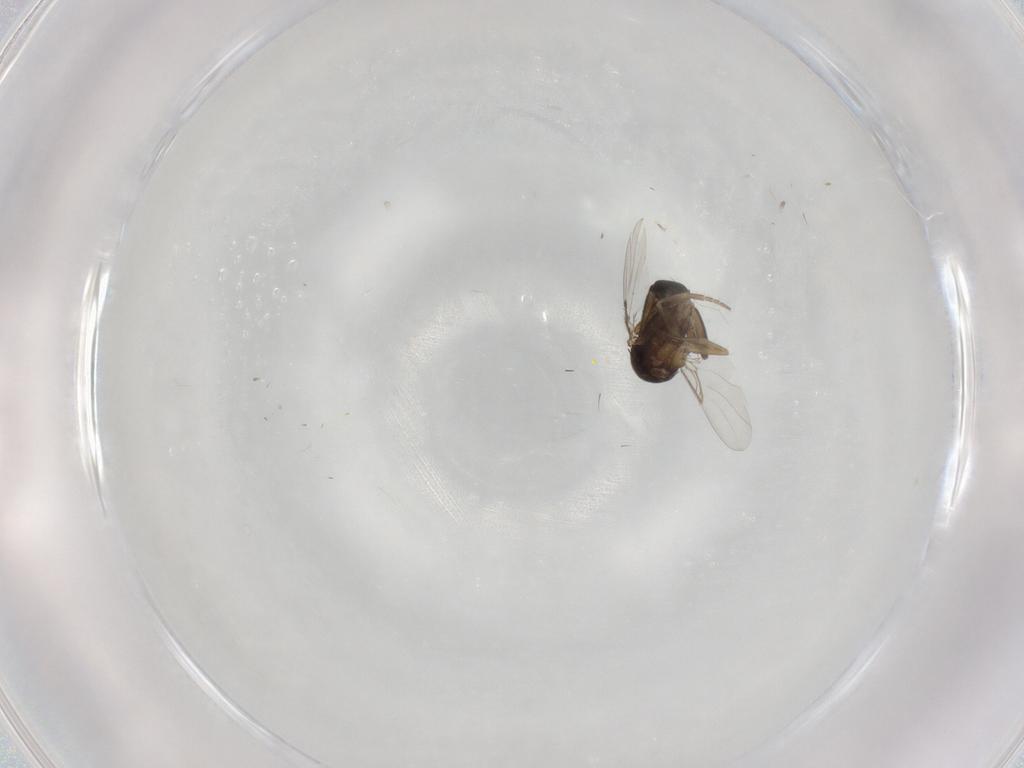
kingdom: Animalia
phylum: Arthropoda
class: Insecta
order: Diptera
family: Phoridae
